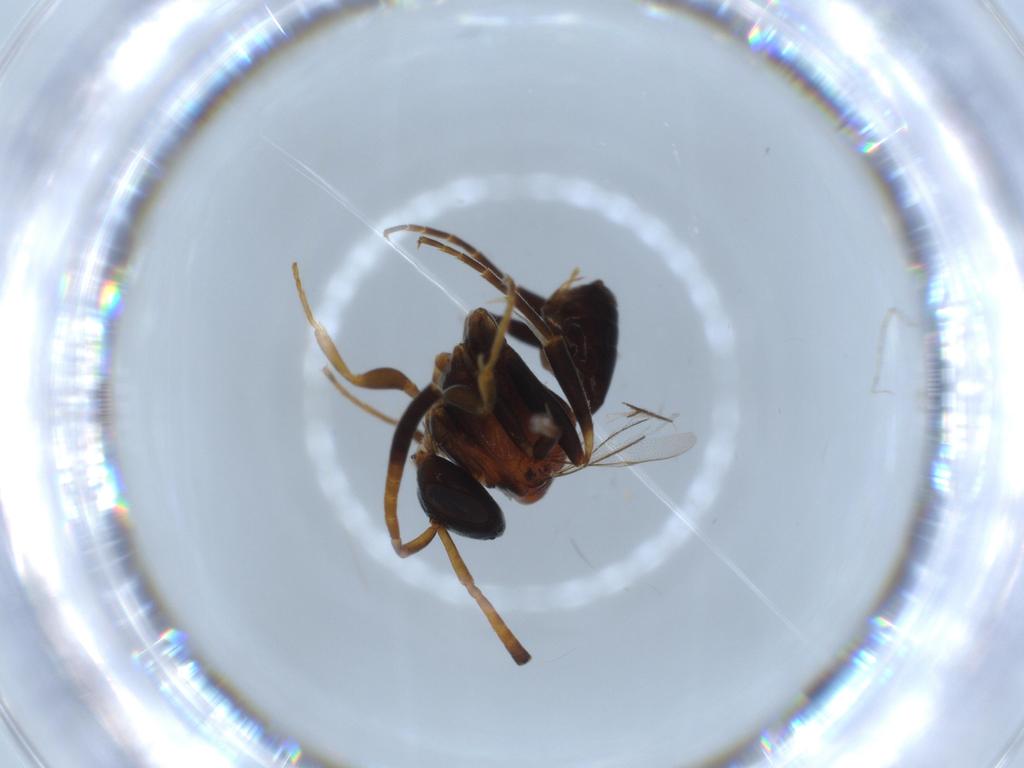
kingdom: Animalia
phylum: Arthropoda
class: Insecta
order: Hymenoptera
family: Evaniidae
